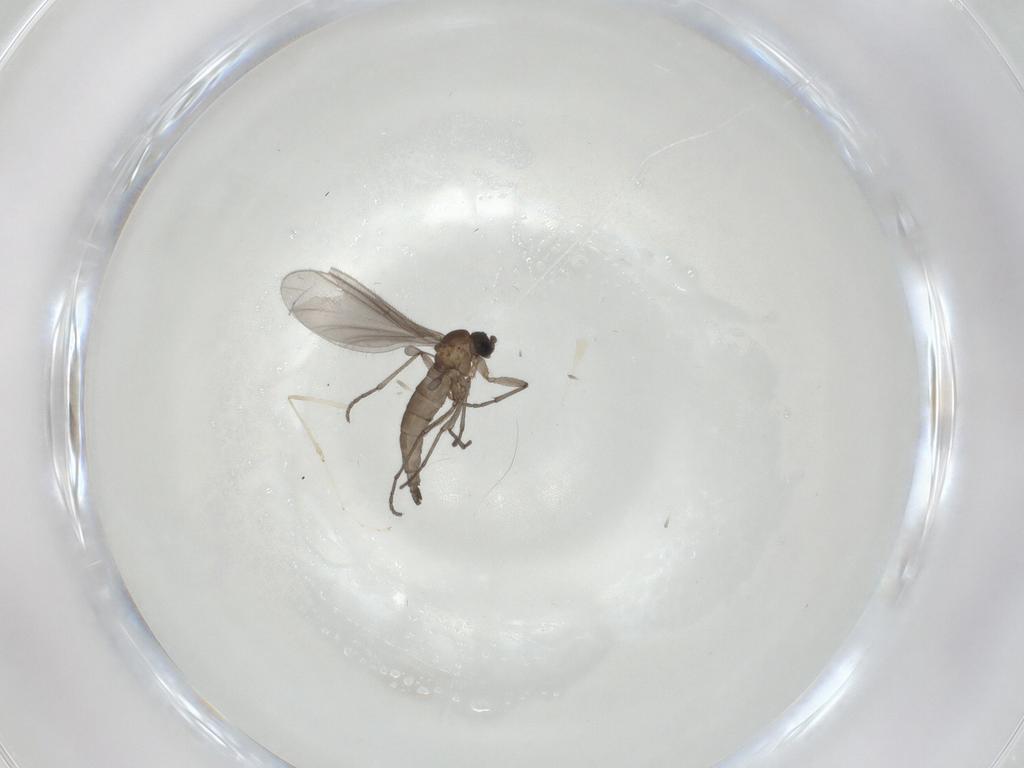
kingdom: Animalia
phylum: Arthropoda
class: Insecta
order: Diptera
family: Sciaridae
